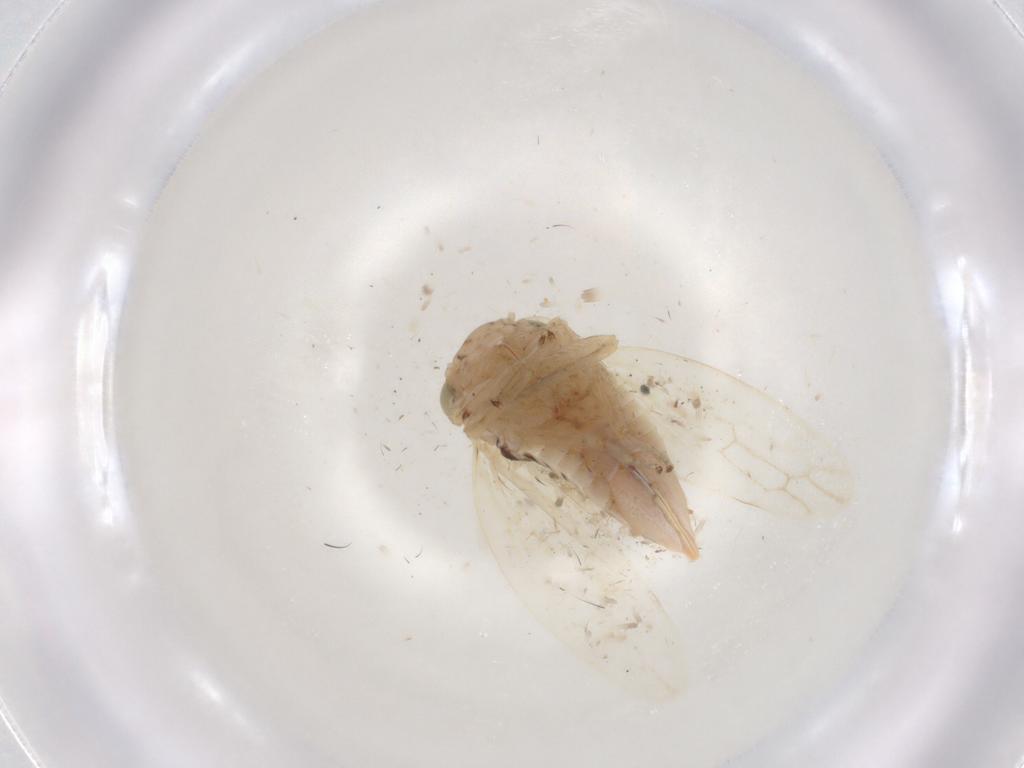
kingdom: Animalia
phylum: Arthropoda
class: Insecta
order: Hemiptera
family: Cicadellidae
